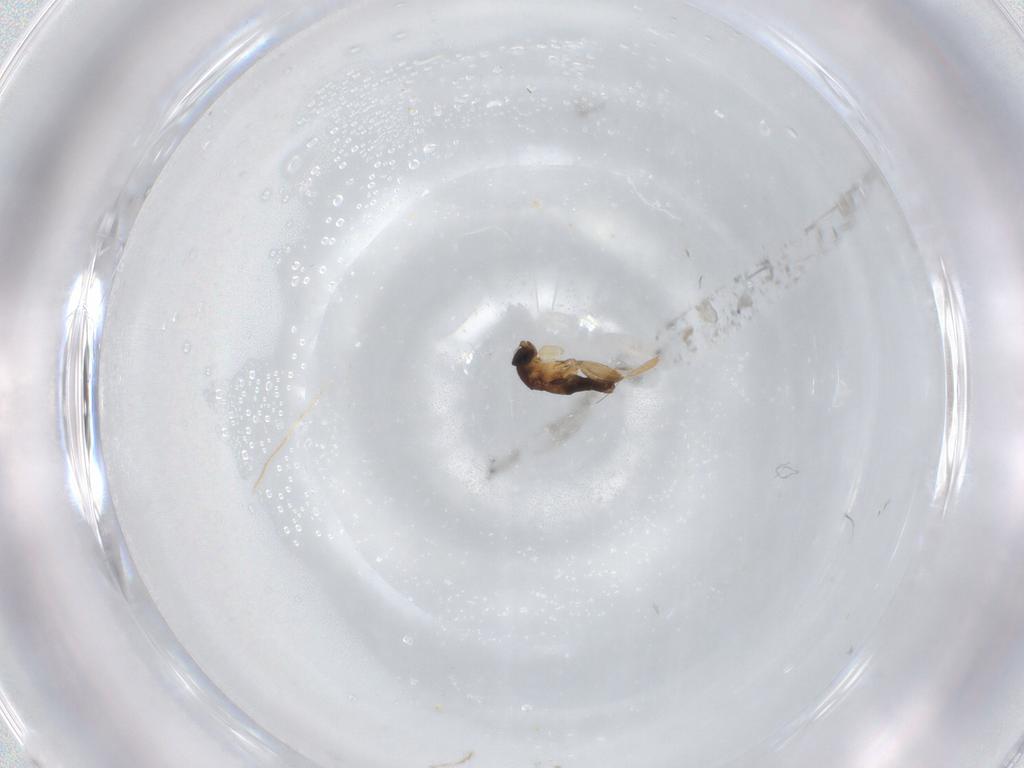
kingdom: Animalia
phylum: Arthropoda
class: Insecta
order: Diptera
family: Phoridae
